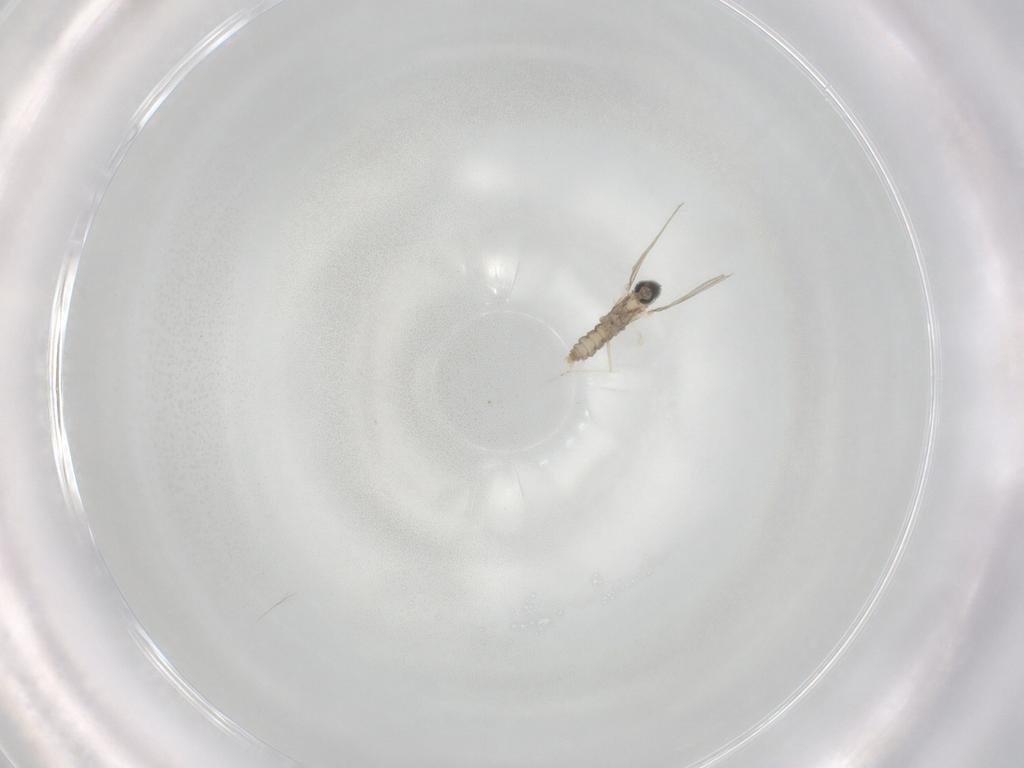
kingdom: Animalia
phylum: Arthropoda
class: Insecta
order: Diptera
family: Cecidomyiidae
